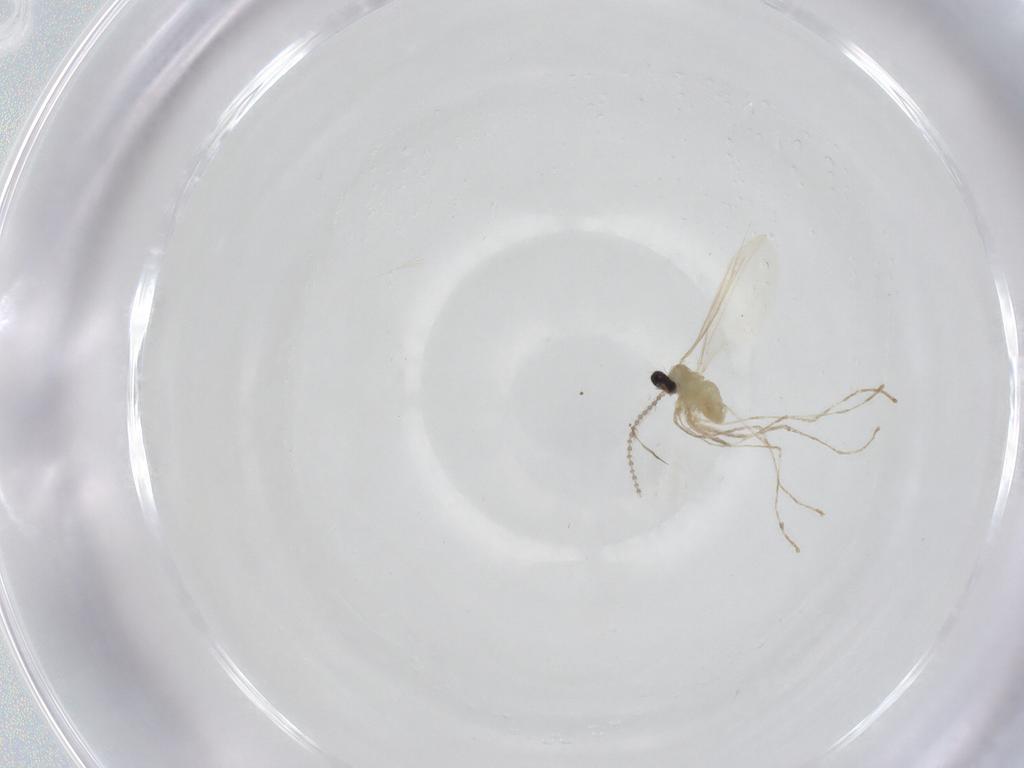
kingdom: Animalia
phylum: Arthropoda
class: Insecta
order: Diptera
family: Cecidomyiidae
